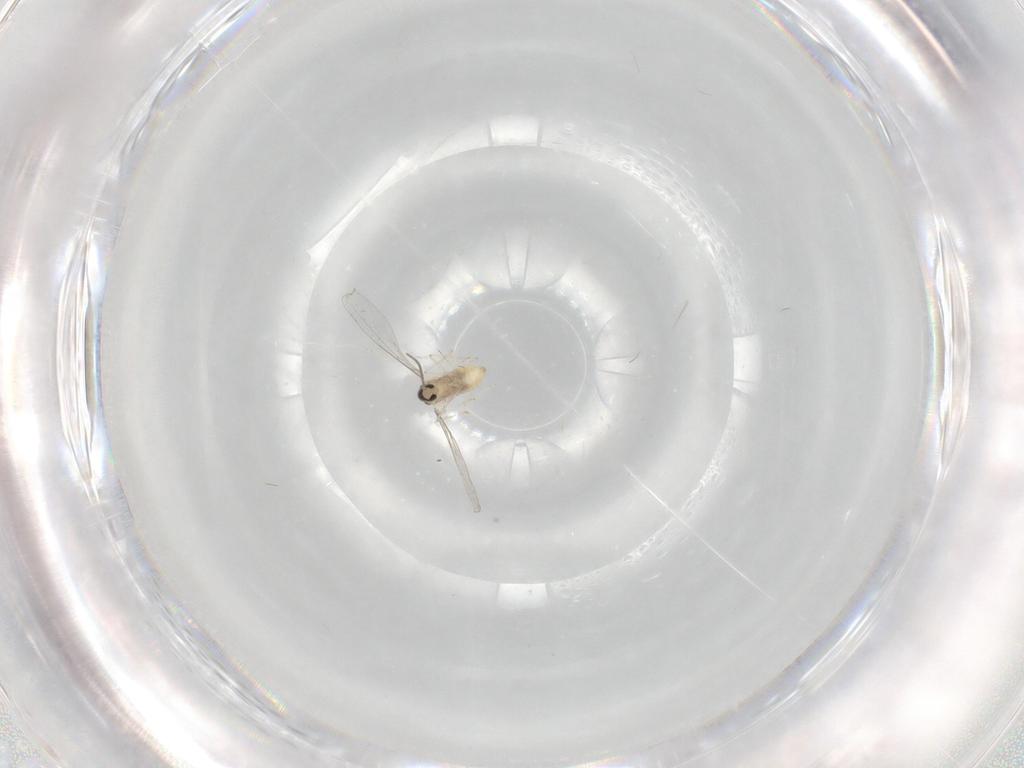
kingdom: Animalia
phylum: Arthropoda
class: Insecta
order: Diptera
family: Cecidomyiidae
